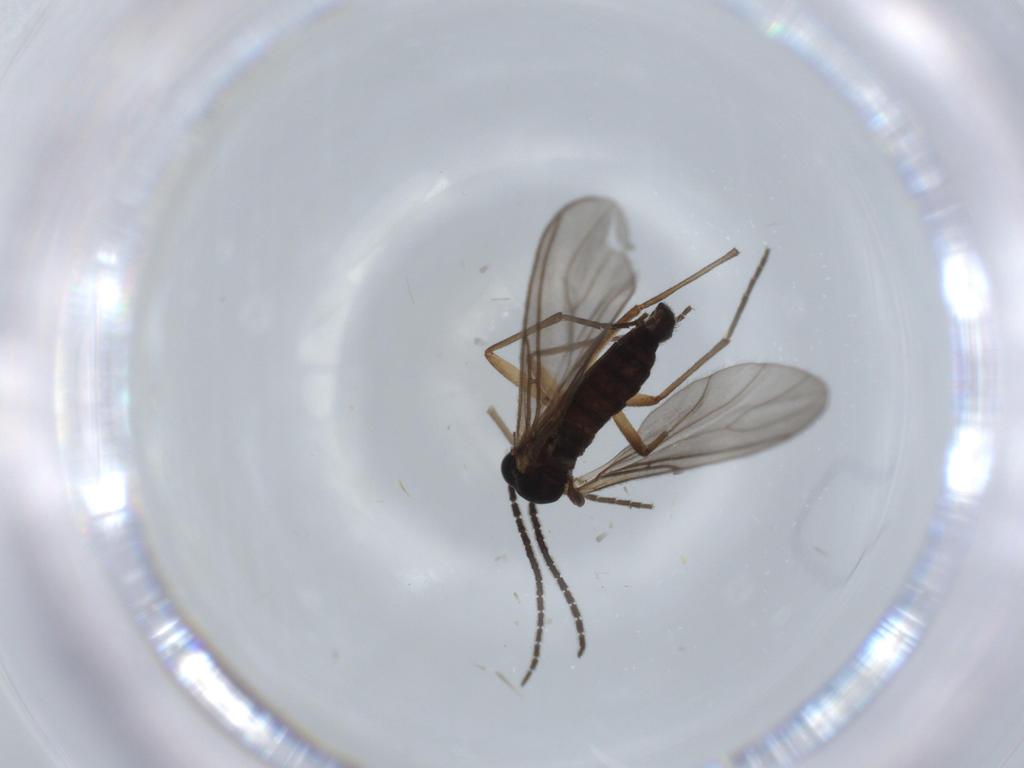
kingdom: Animalia
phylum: Arthropoda
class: Insecta
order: Diptera
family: Sciaridae
